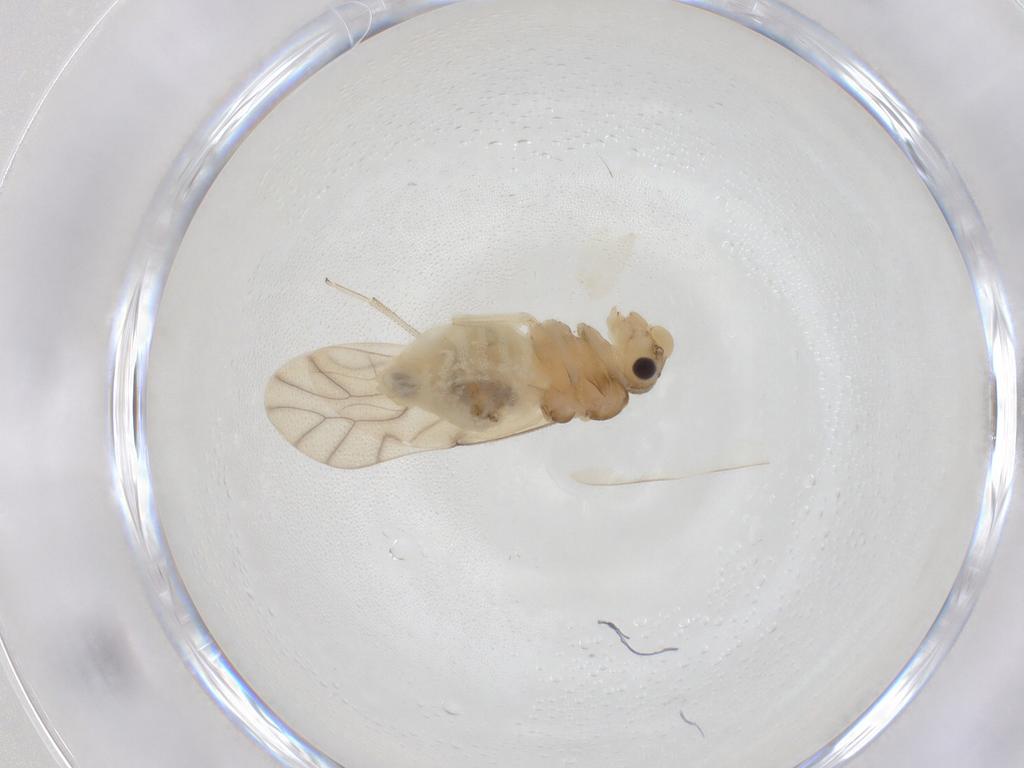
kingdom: Animalia
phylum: Arthropoda
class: Insecta
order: Psocodea
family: Caeciliusidae
